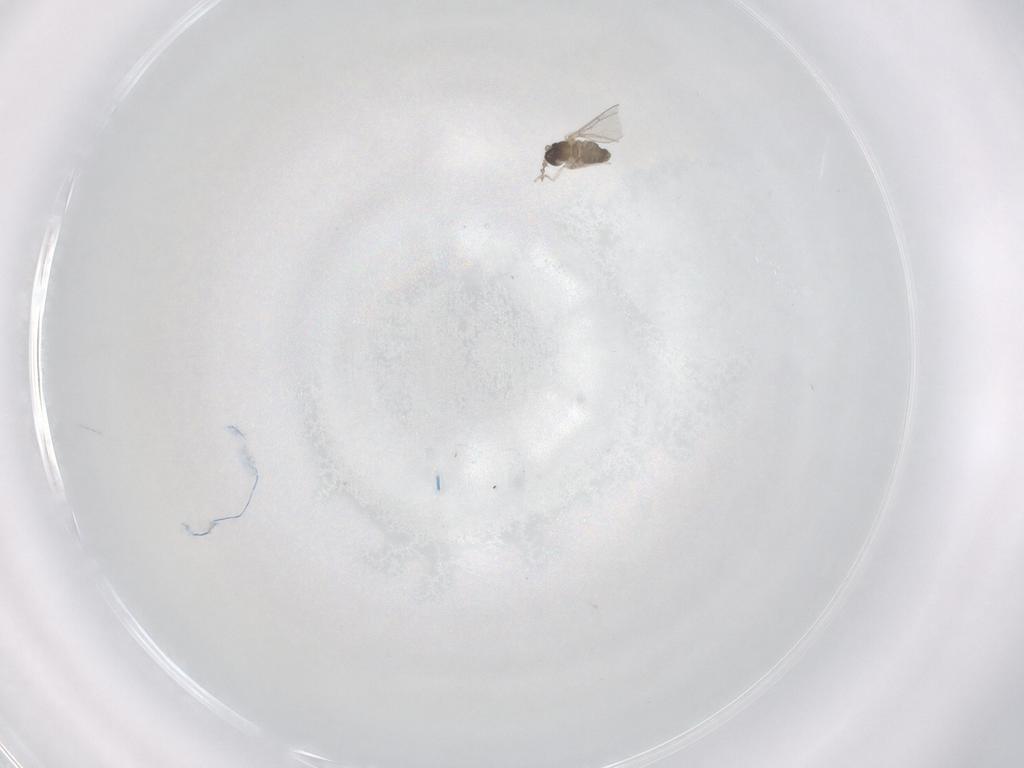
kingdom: Animalia
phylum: Arthropoda
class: Insecta
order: Diptera
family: Cecidomyiidae
